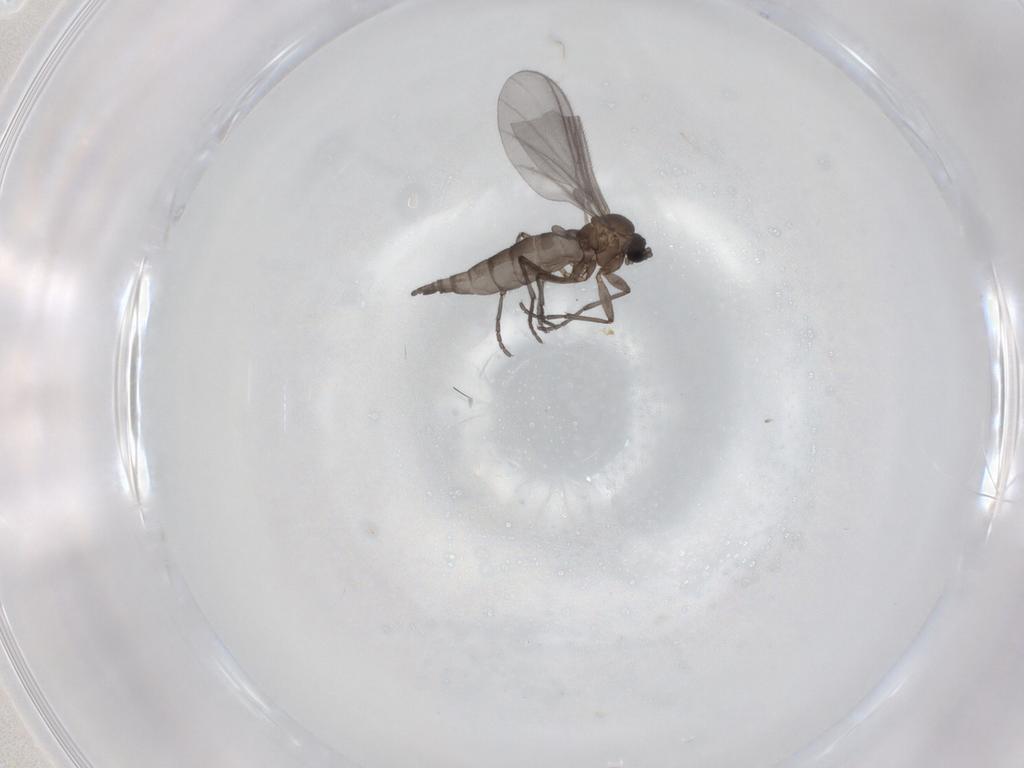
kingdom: Animalia
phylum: Arthropoda
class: Insecta
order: Diptera
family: Sciaridae
